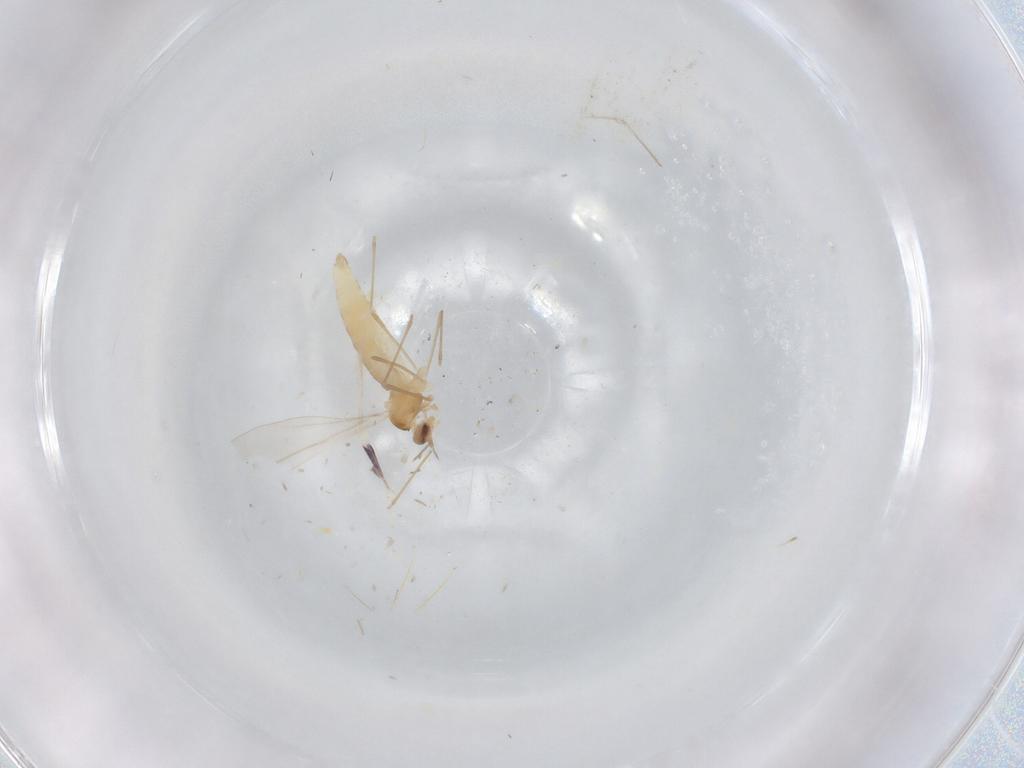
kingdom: Animalia
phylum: Arthropoda
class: Insecta
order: Diptera
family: Cecidomyiidae
